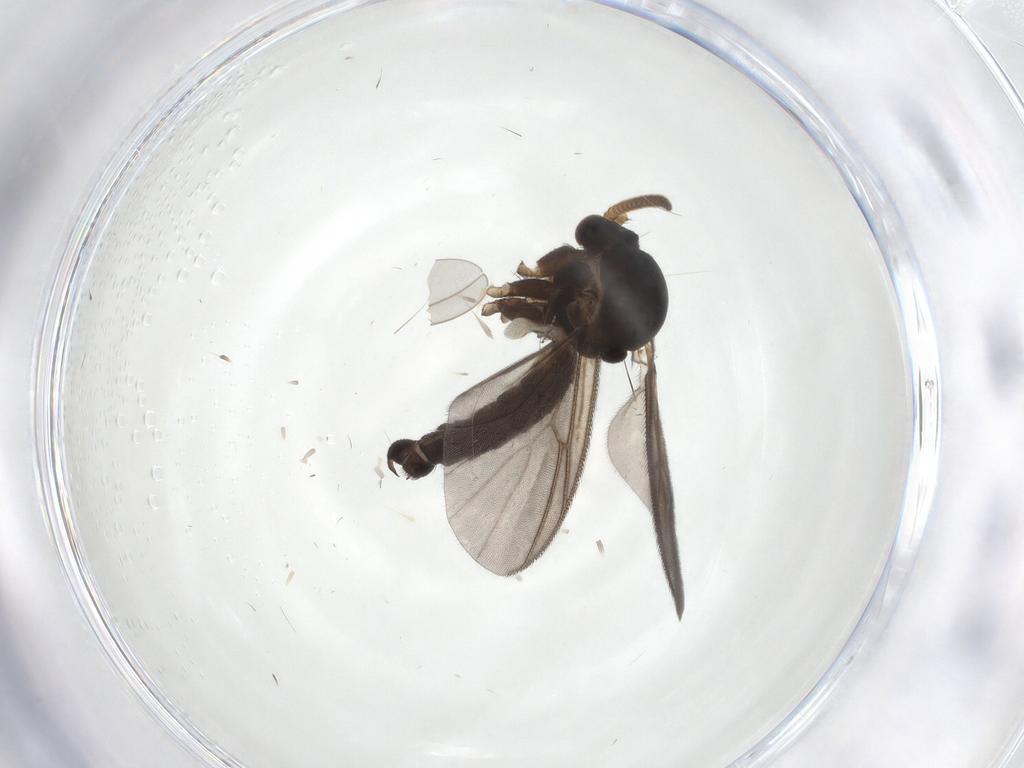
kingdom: Animalia
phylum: Arthropoda
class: Insecta
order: Diptera
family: Mycetophilidae
